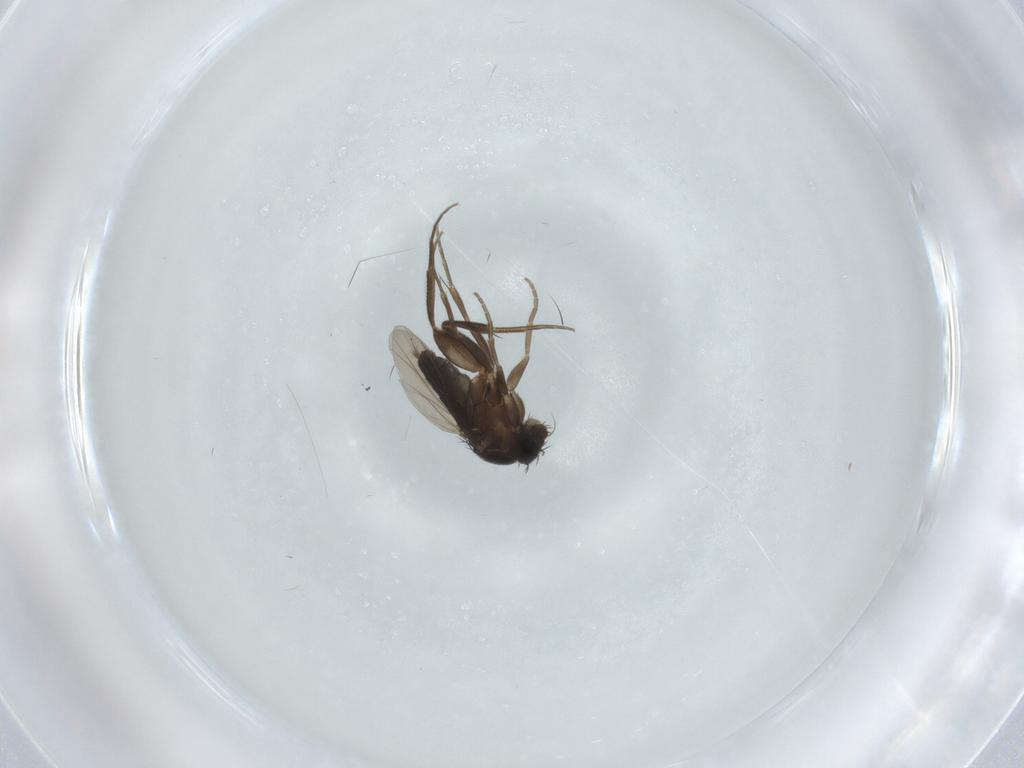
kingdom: Animalia
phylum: Arthropoda
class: Insecta
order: Diptera
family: Phoridae
